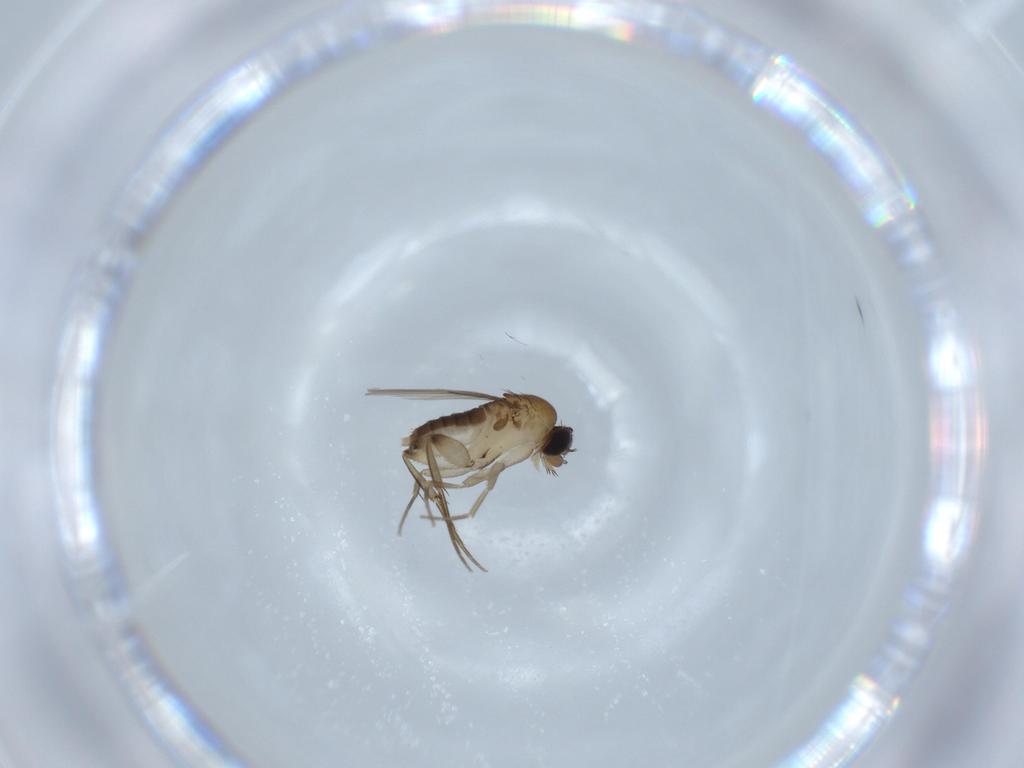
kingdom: Animalia
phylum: Arthropoda
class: Insecta
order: Diptera
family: Phoridae
